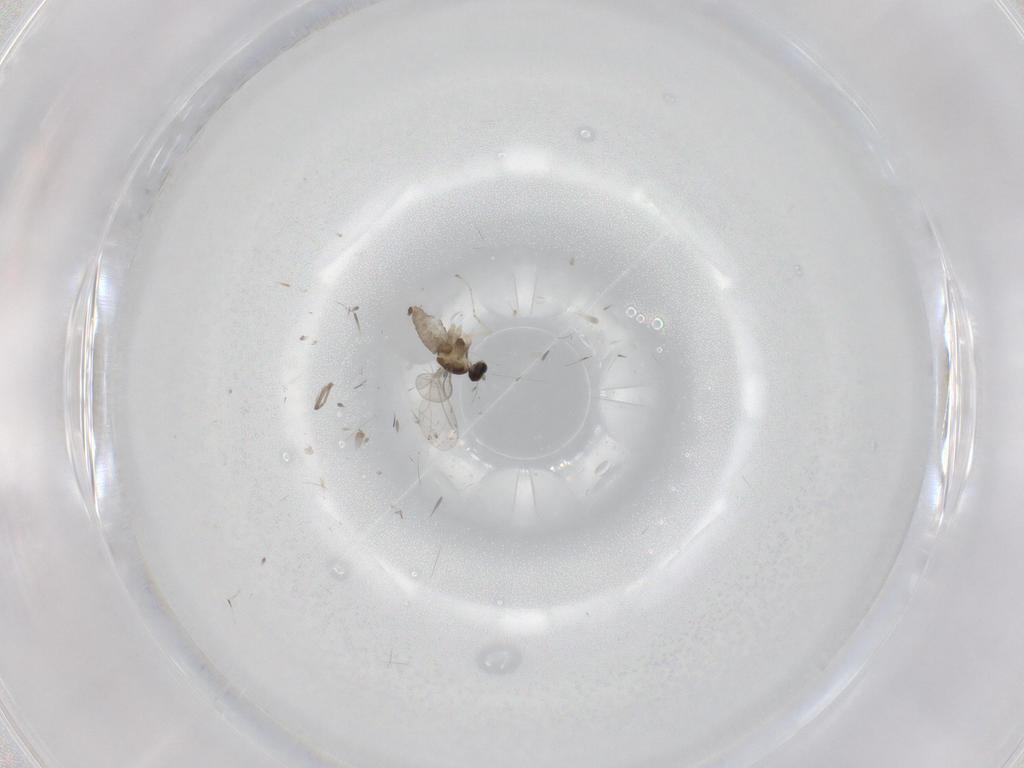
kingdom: Animalia
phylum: Arthropoda
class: Insecta
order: Diptera
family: Cecidomyiidae
